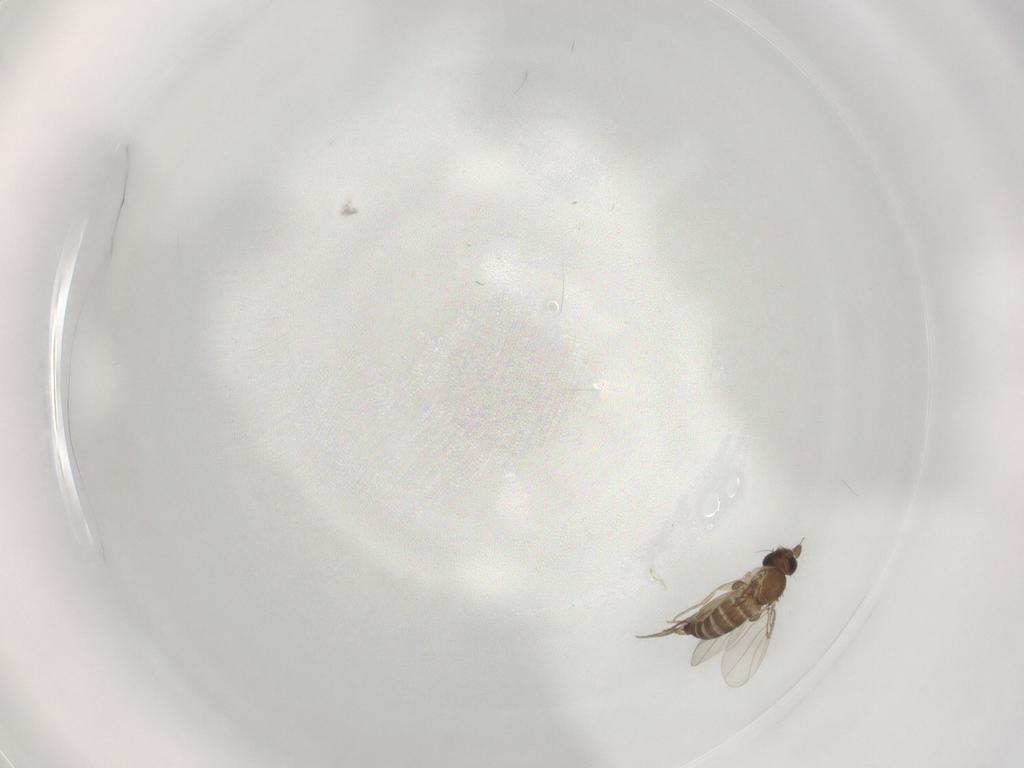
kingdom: Animalia
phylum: Arthropoda
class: Insecta
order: Diptera
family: Phoridae
